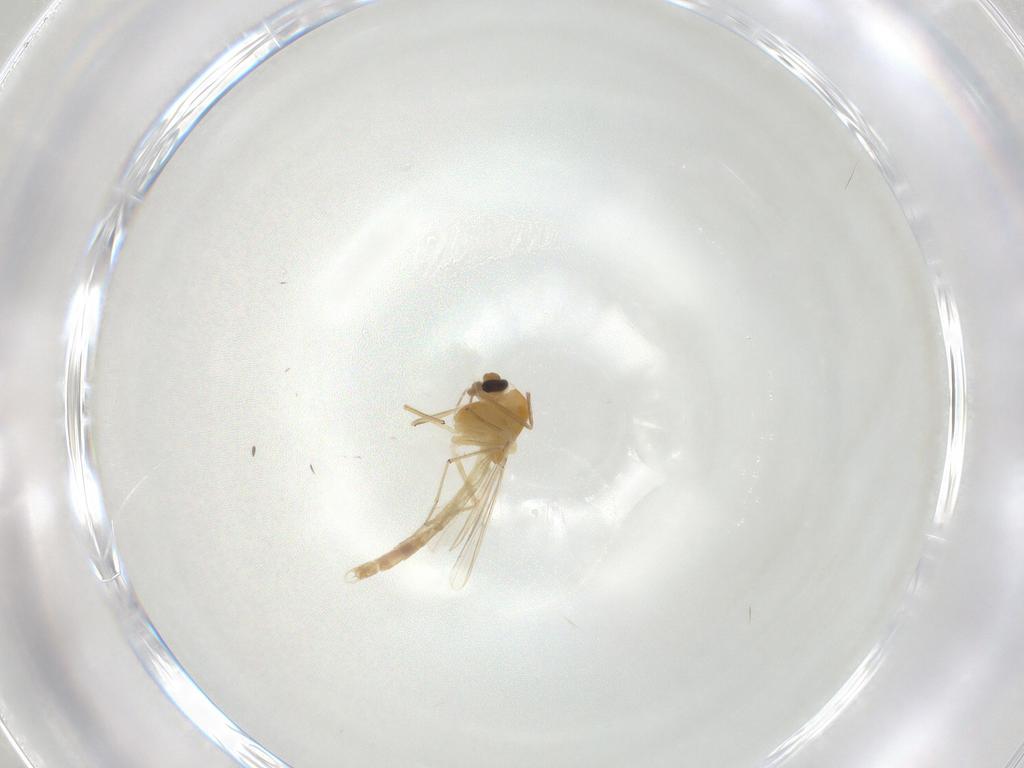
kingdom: Animalia
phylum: Arthropoda
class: Insecta
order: Diptera
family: Chironomidae
